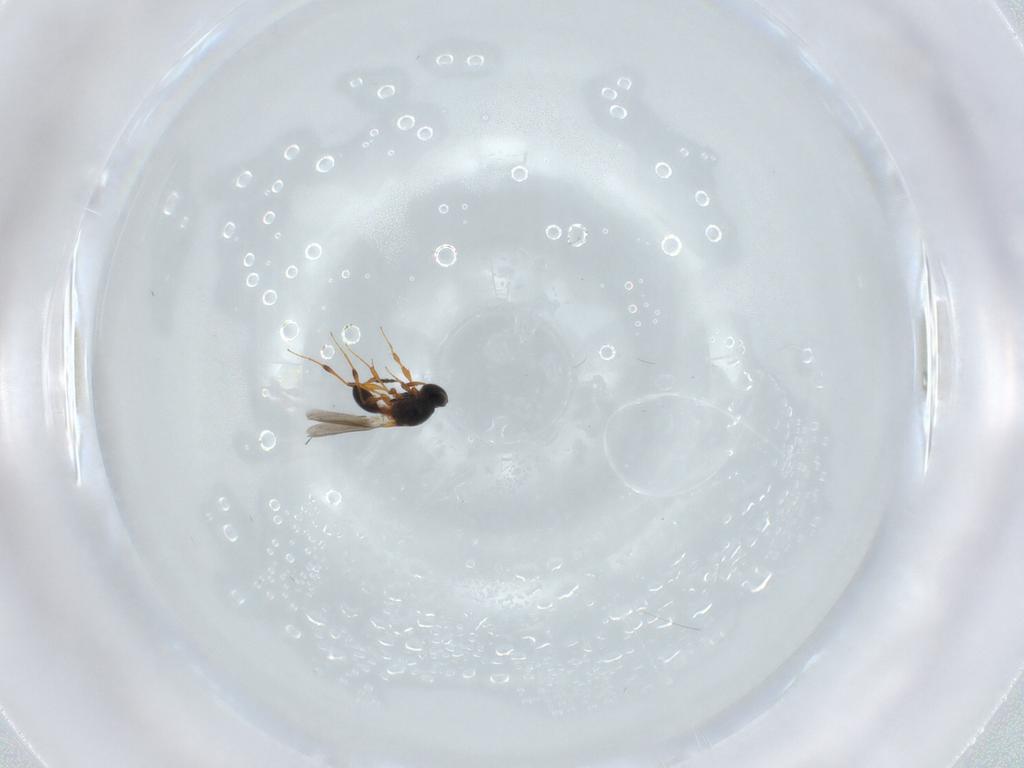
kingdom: Animalia
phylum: Arthropoda
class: Insecta
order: Hymenoptera
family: Platygastridae
